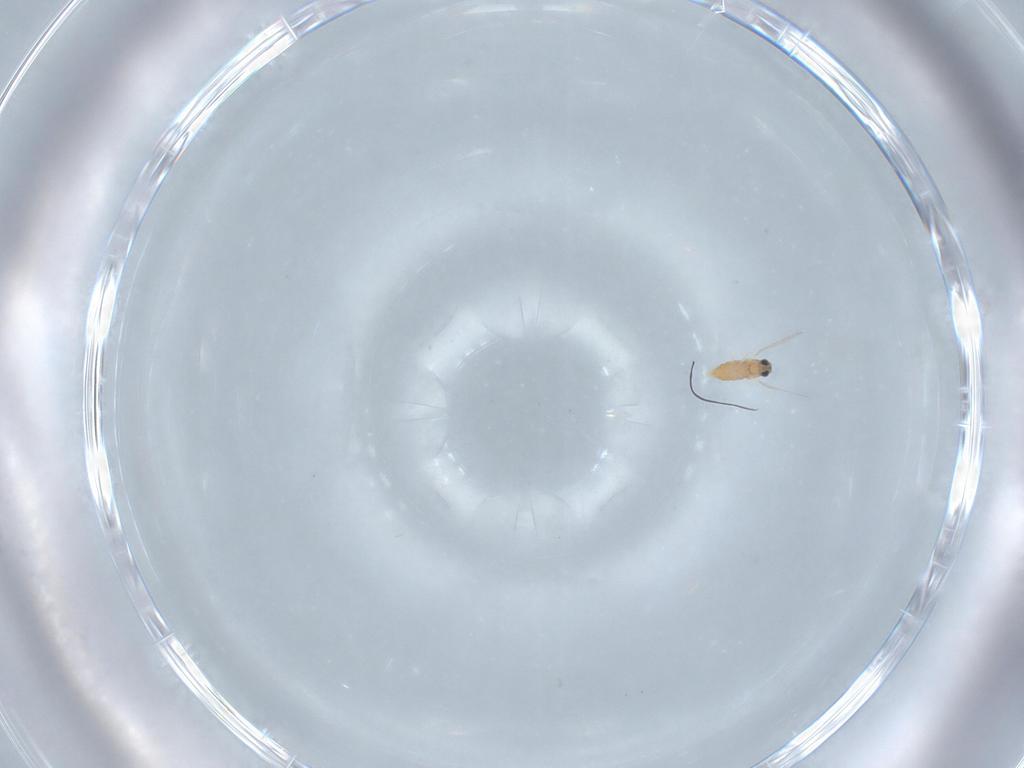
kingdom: Animalia
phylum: Arthropoda
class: Insecta
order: Diptera
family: Cecidomyiidae
